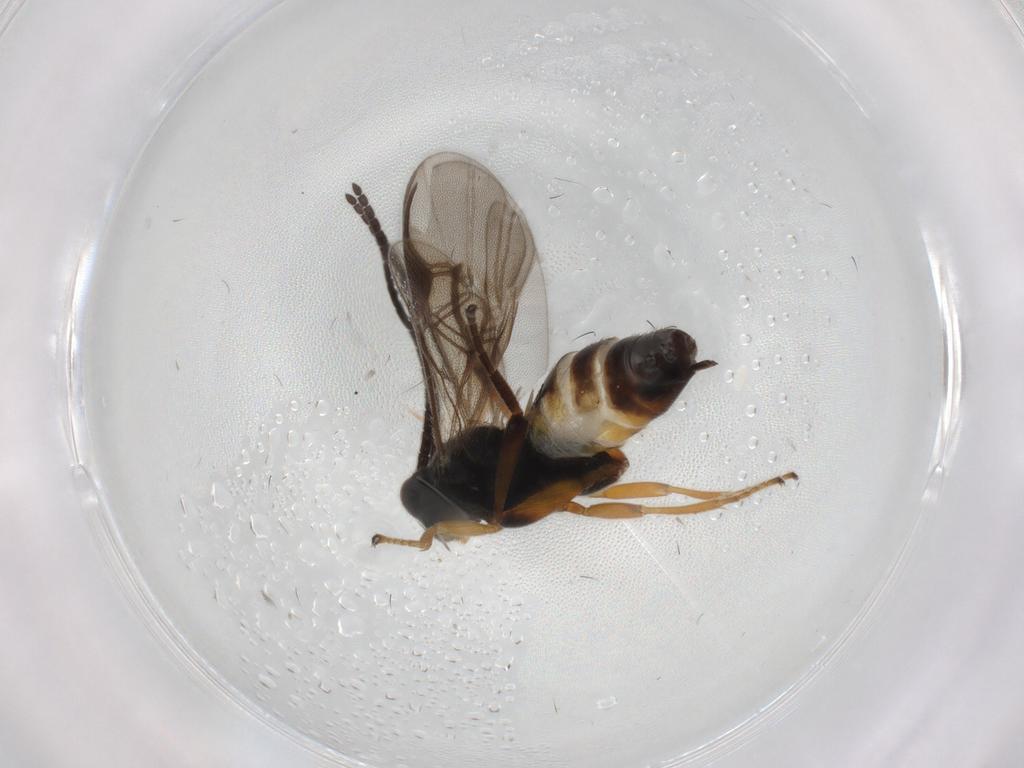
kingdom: Animalia
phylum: Arthropoda
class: Insecta
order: Hymenoptera
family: Braconidae
